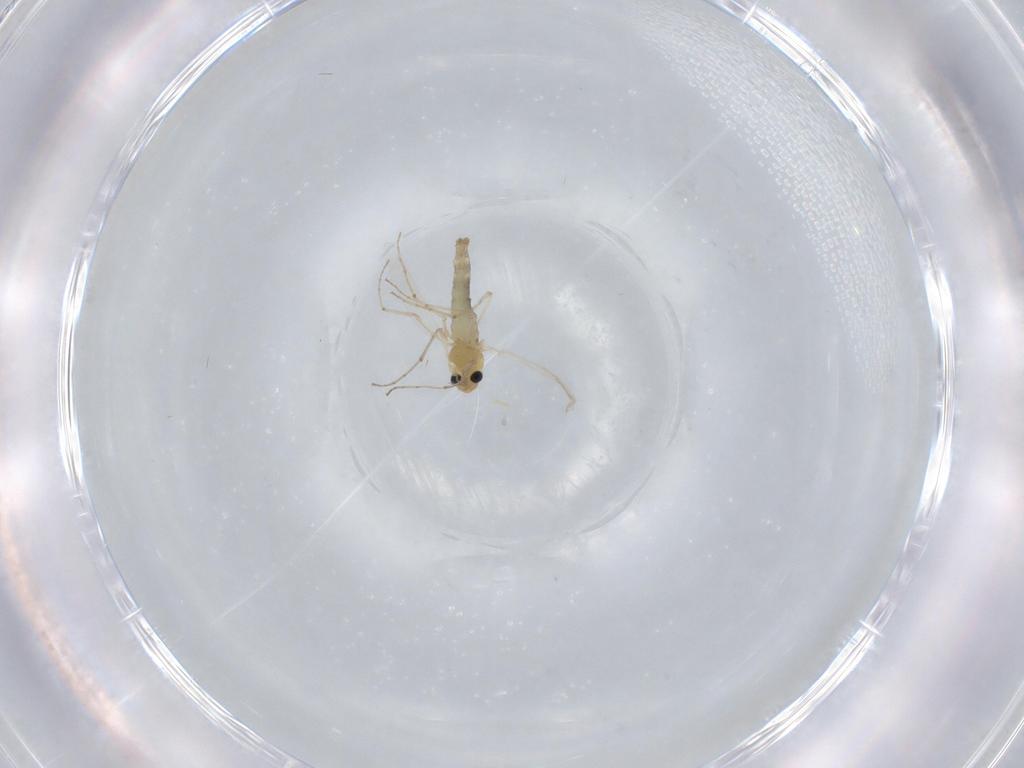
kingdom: Animalia
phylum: Arthropoda
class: Insecta
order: Diptera
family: Chironomidae
